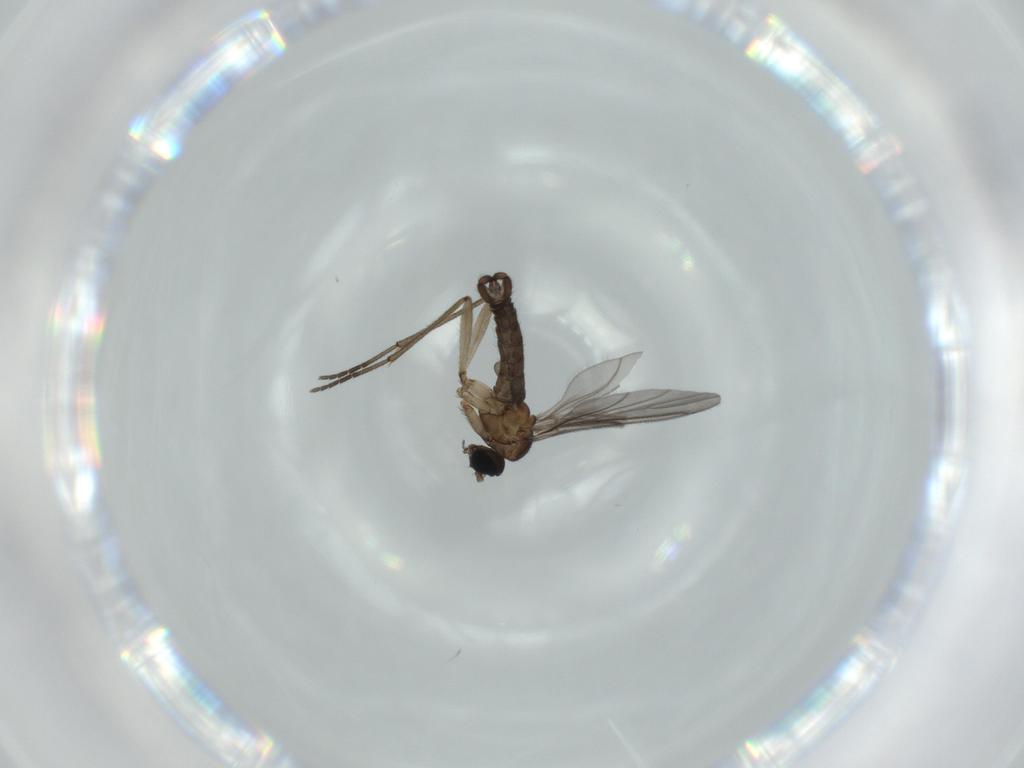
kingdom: Animalia
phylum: Arthropoda
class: Insecta
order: Diptera
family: Sciaridae
